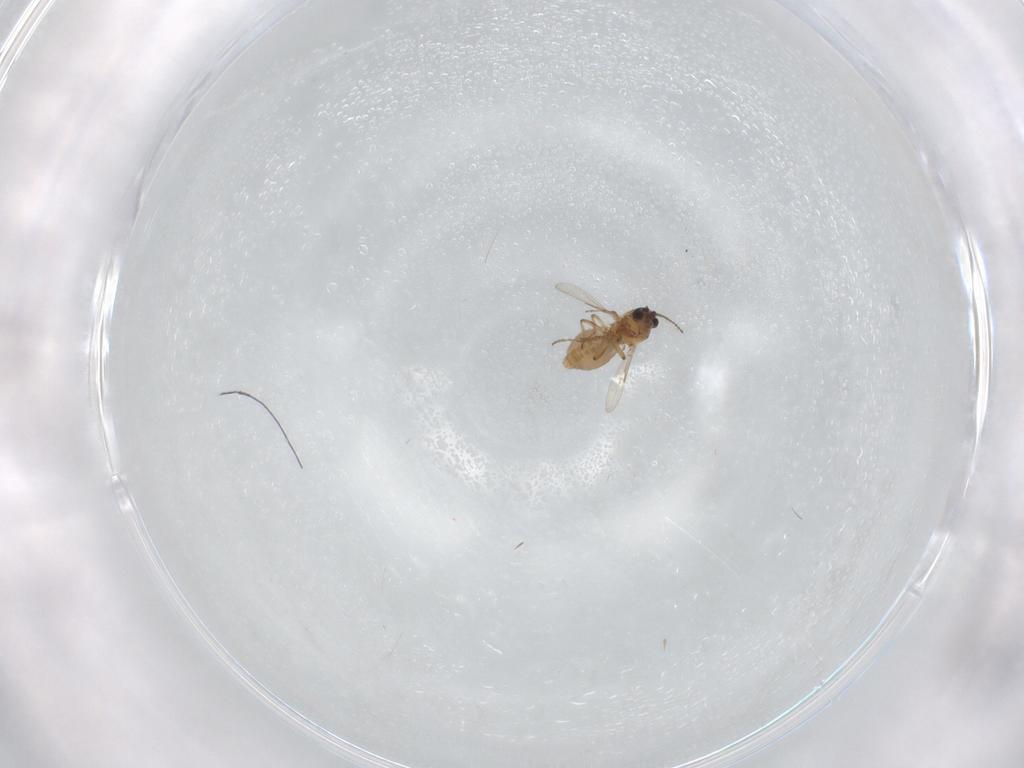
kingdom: Animalia
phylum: Arthropoda
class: Insecta
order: Diptera
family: Ceratopogonidae
